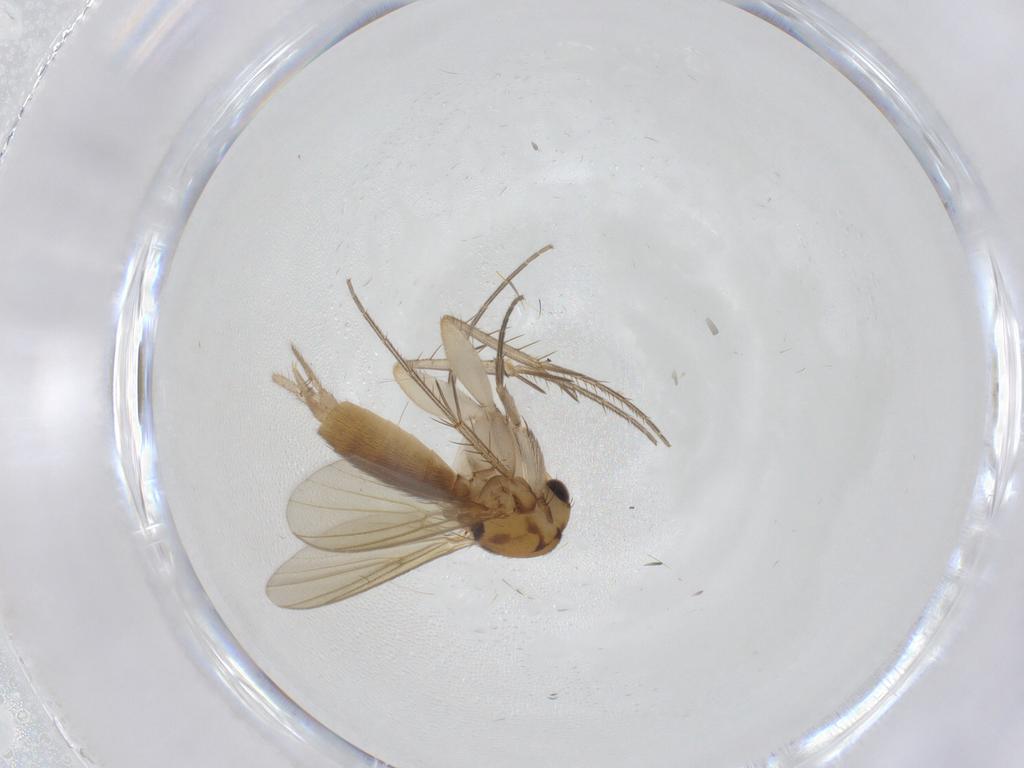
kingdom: Animalia
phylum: Arthropoda
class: Insecta
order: Diptera
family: Mycetophilidae
